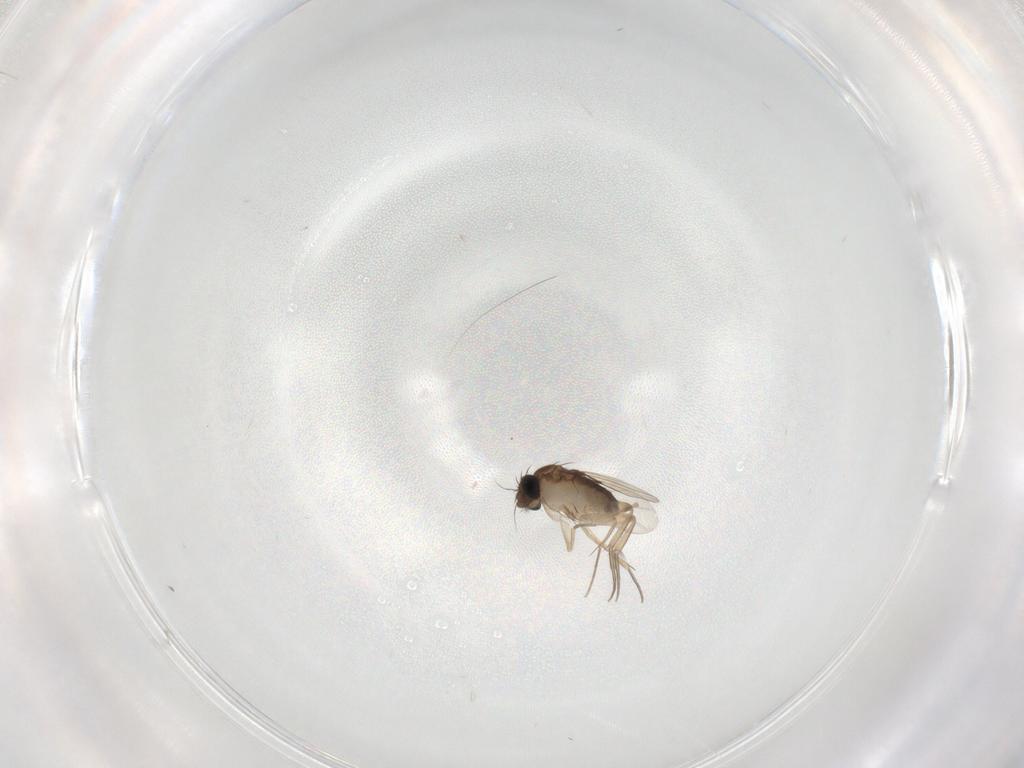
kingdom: Animalia
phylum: Arthropoda
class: Insecta
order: Diptera
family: Phoridae
